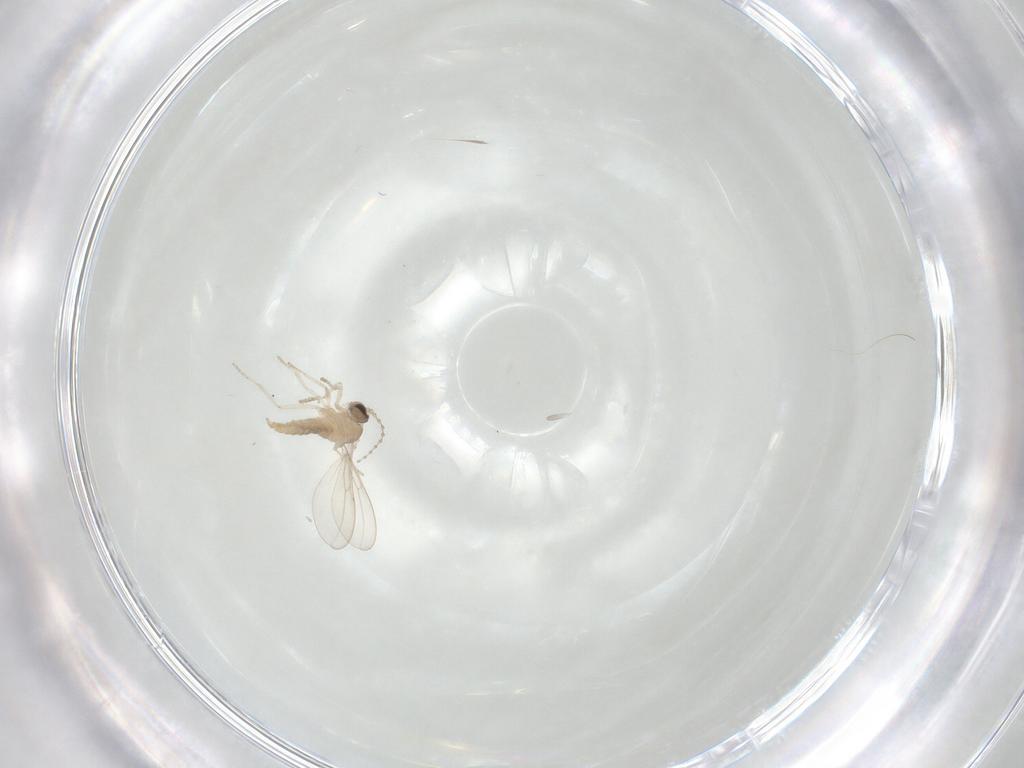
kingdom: Animalia
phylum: Arthropoda
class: Insecta
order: Diptera
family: Cecidomyiidae
